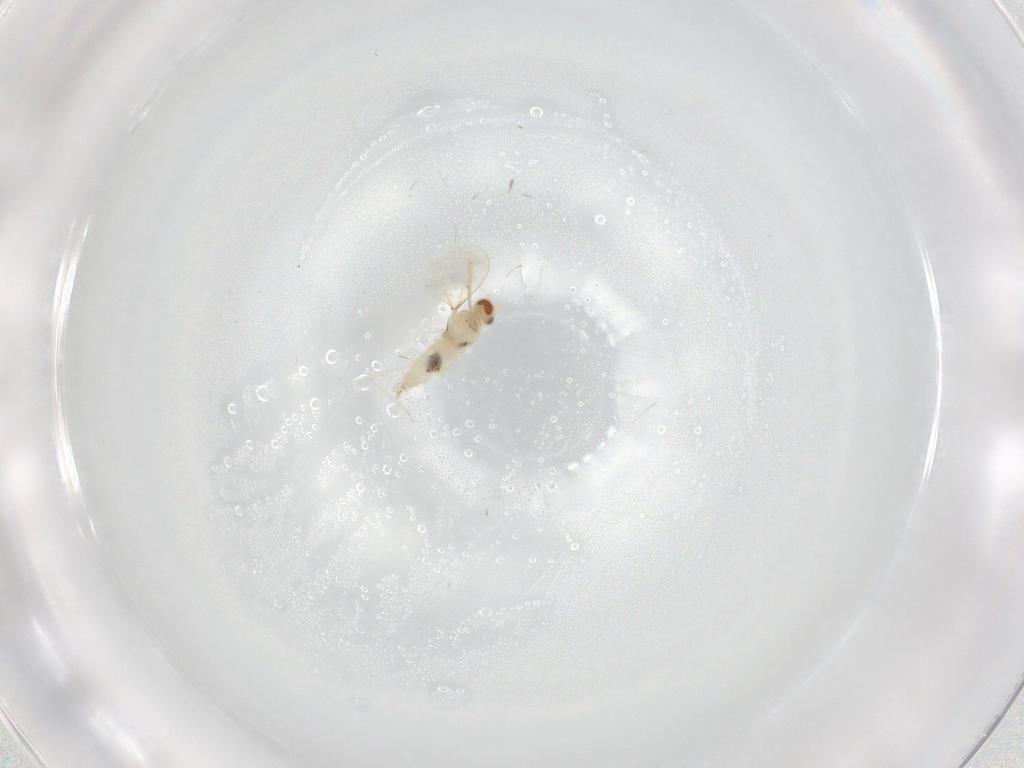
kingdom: Animalia
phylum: Arthropoda
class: Insecta
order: Diptera
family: Cecidomyiidae
